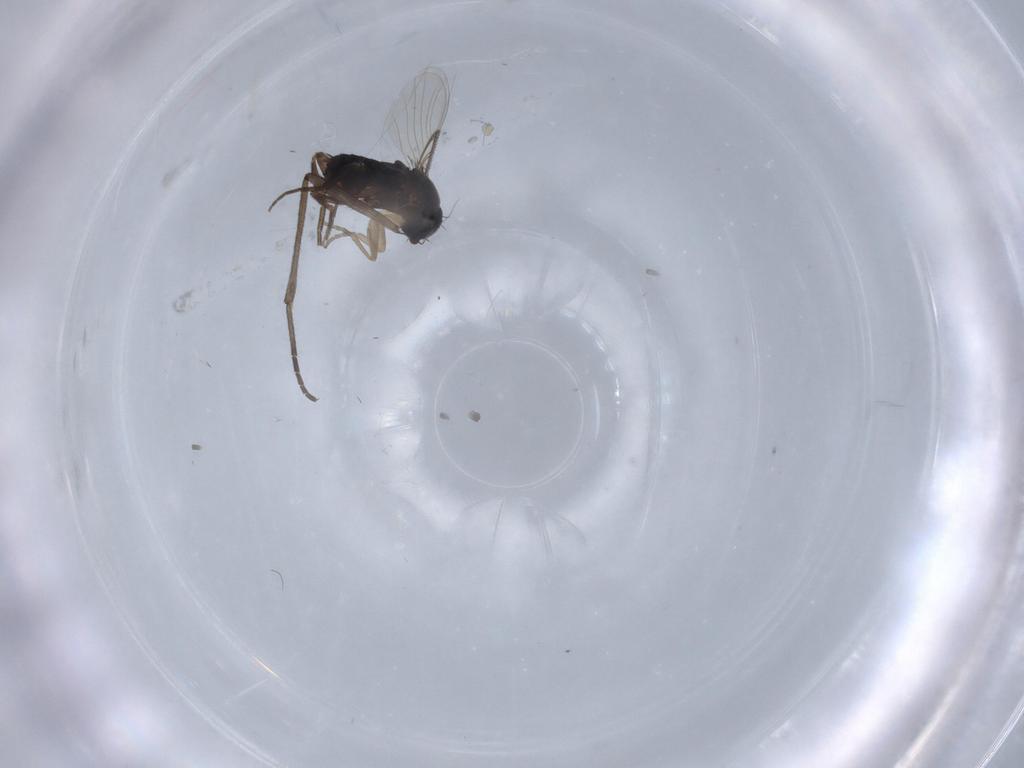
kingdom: Animalia
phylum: Arthropoda
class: Insecta
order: Diptera
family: Phoridae
